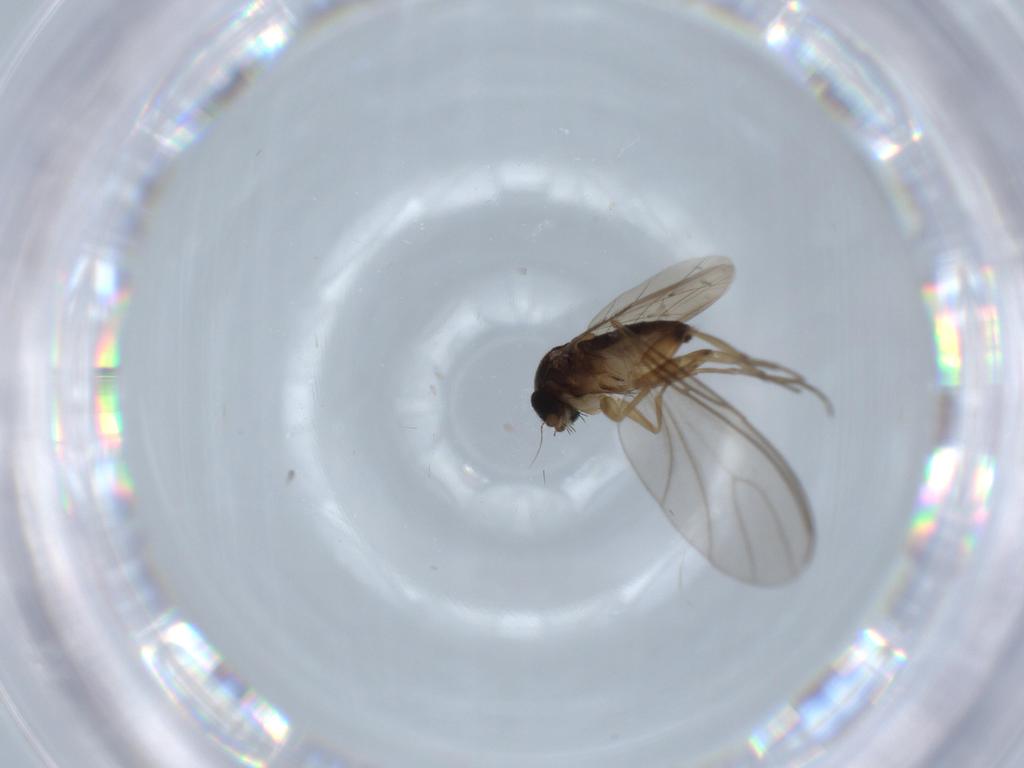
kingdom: Animalia
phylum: Arthropoda
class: Insecta
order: Diptera
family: Phoridae
